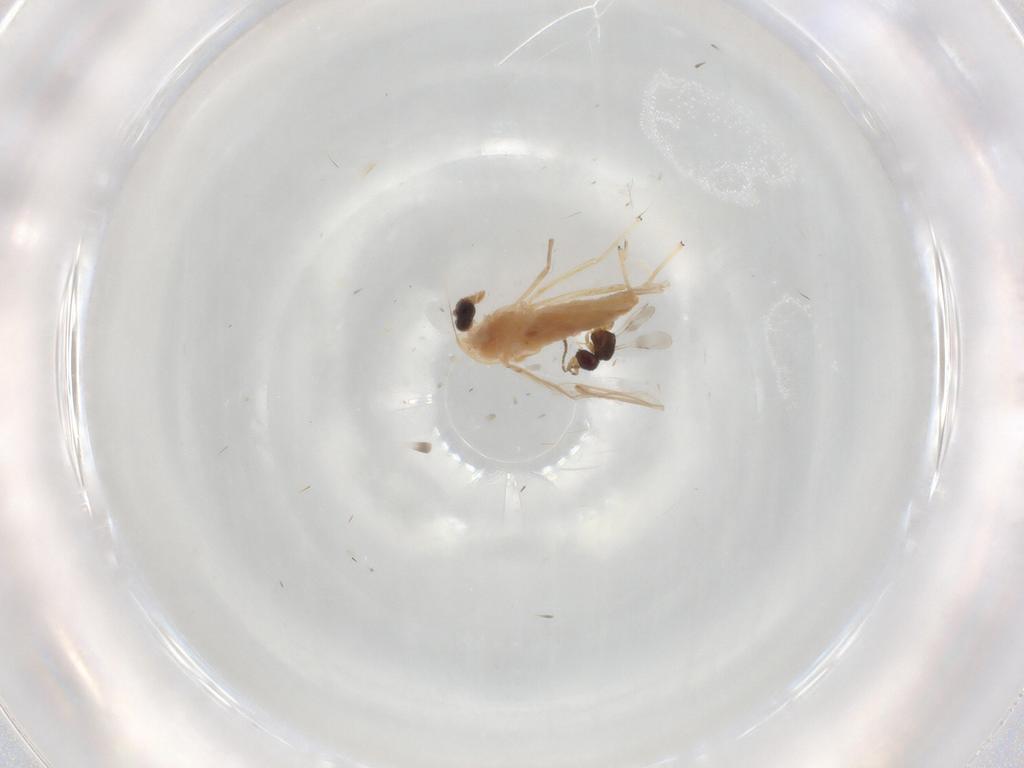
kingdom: Animalia
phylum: Arthropoda
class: Insecta
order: Diptera
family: Chironomidae
